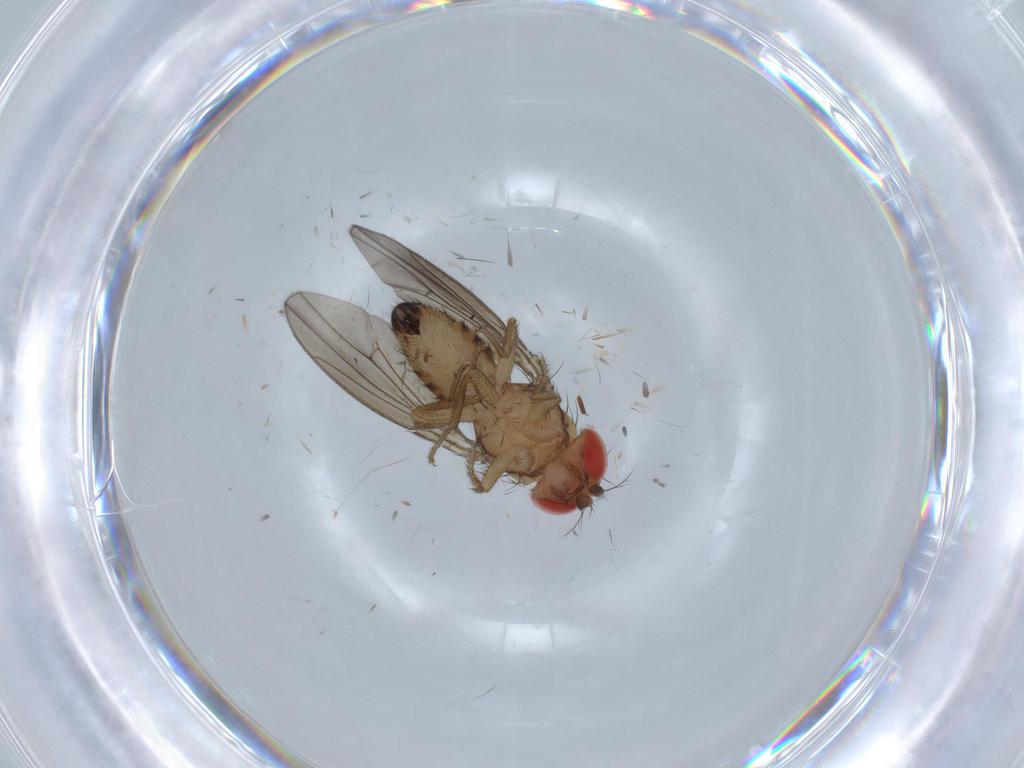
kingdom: Animalia
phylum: Arthropoda
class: Insecta
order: Diptera
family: Drosophilidae
